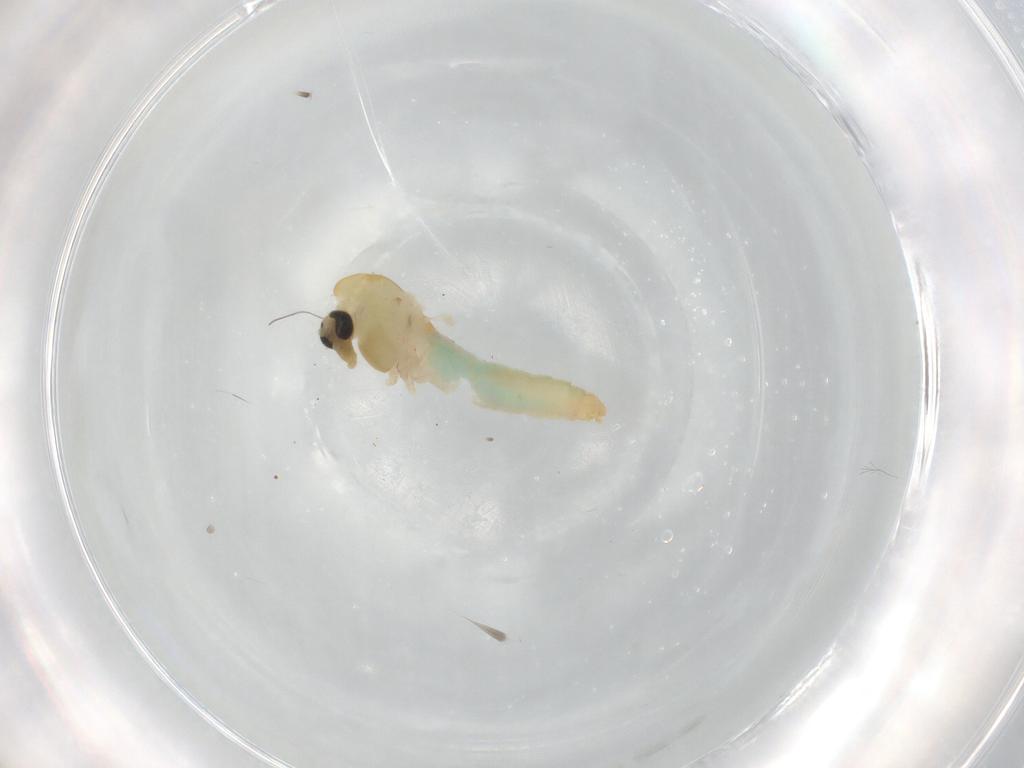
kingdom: Animalia
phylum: Arthropoda
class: Insecta
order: Diptera
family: Chironomidae
